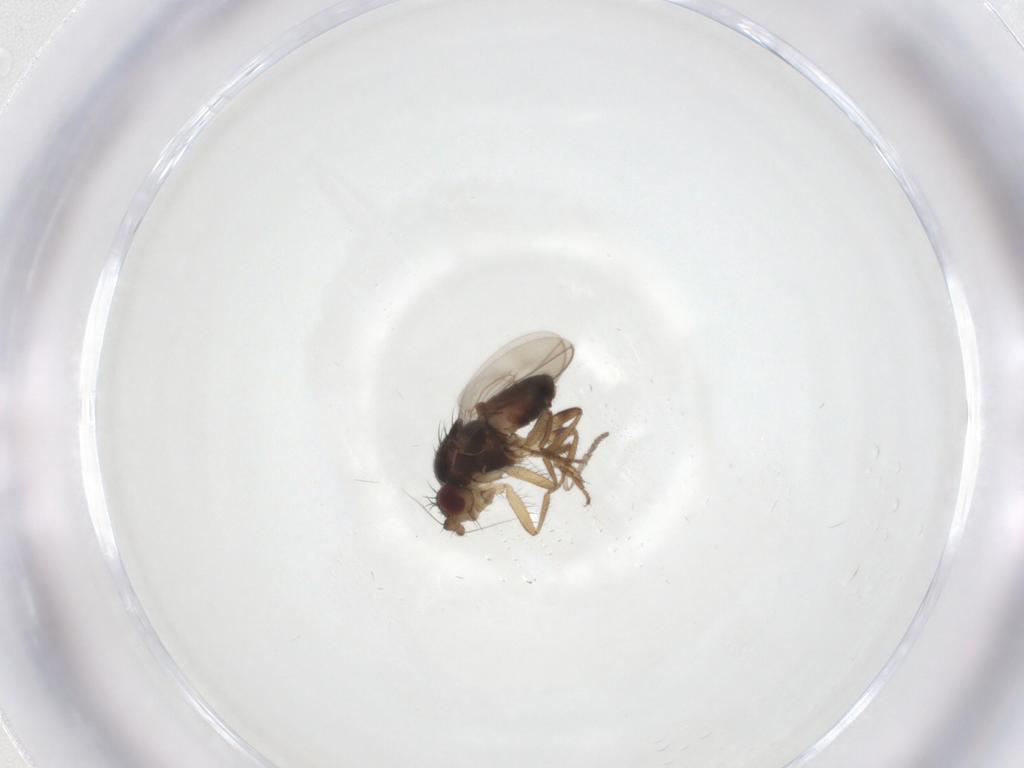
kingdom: Animalia
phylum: Arthropoda
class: Insecta
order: Diptera
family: Sphaeroceridae
